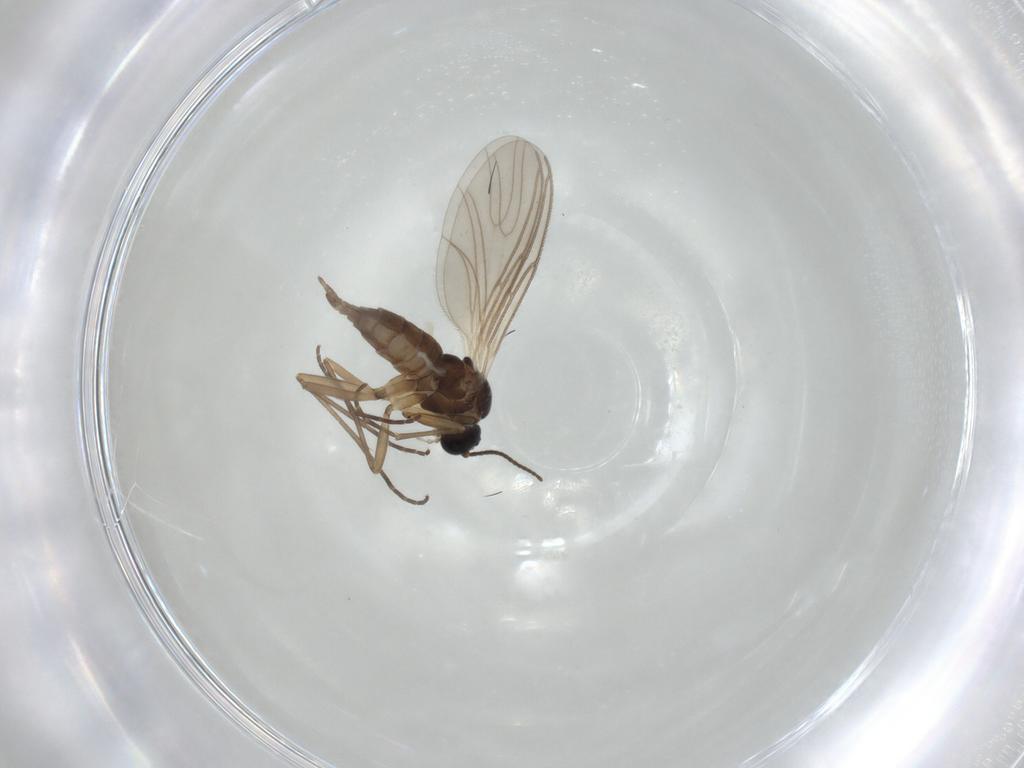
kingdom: Animalia
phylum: Arthropoda
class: Insecta
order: Diptera
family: Sciaridae
